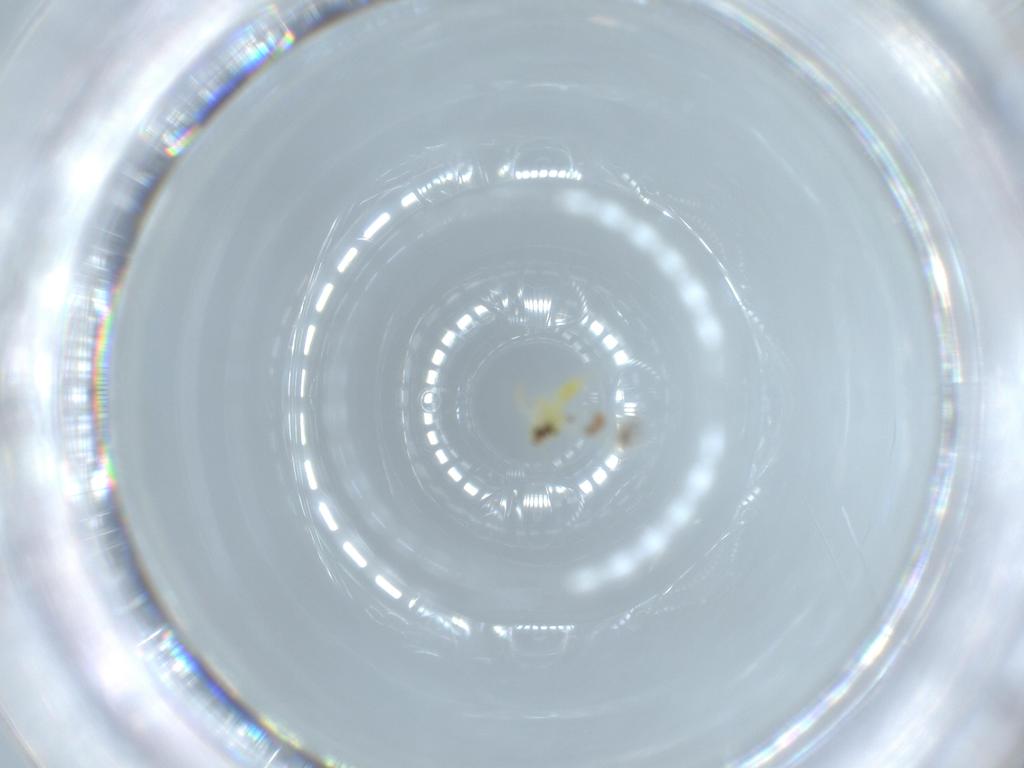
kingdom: Animalia
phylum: Arthropoda
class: Insecta
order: Hemiptera
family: Aleyrodidae
